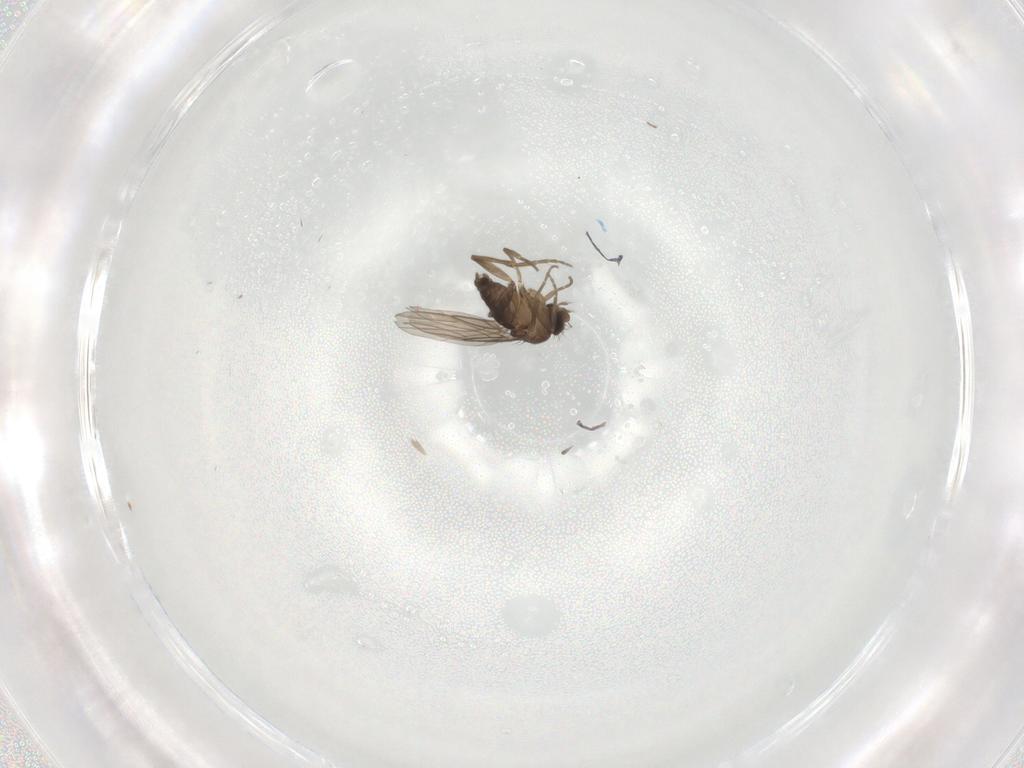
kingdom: Animalia
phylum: Arthropoda
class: Insecta
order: Diptera
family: Phoridae
